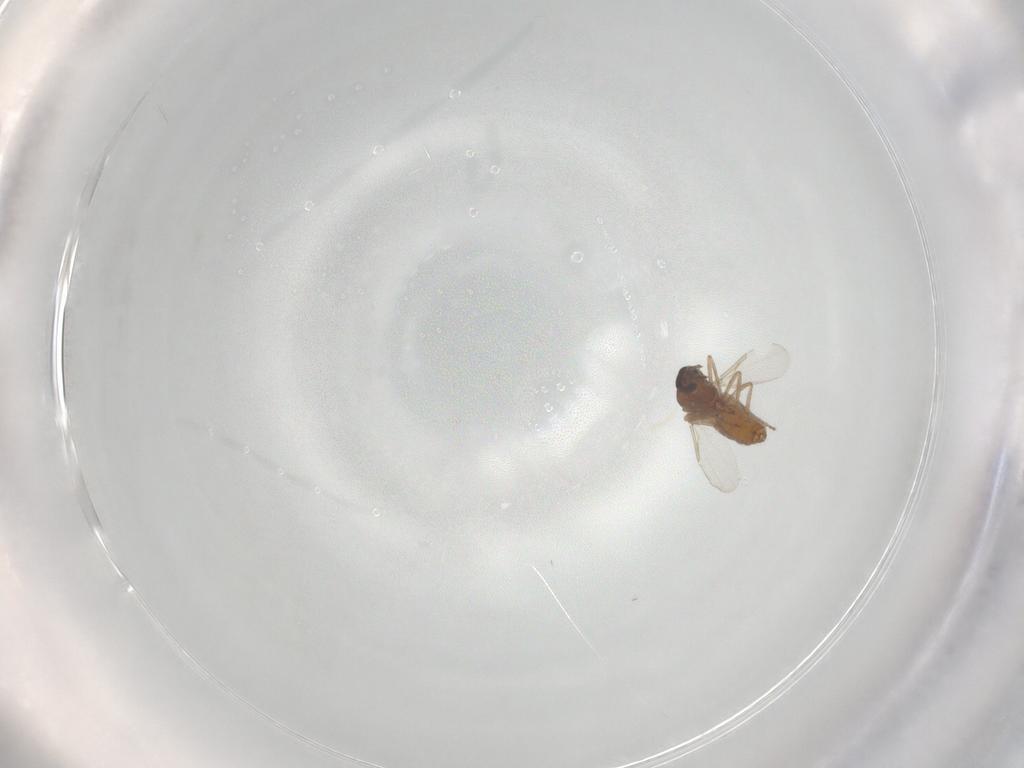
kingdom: Animalia
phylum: Arthropoda
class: Insecta
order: Diptera
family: Ceratopogonidae
